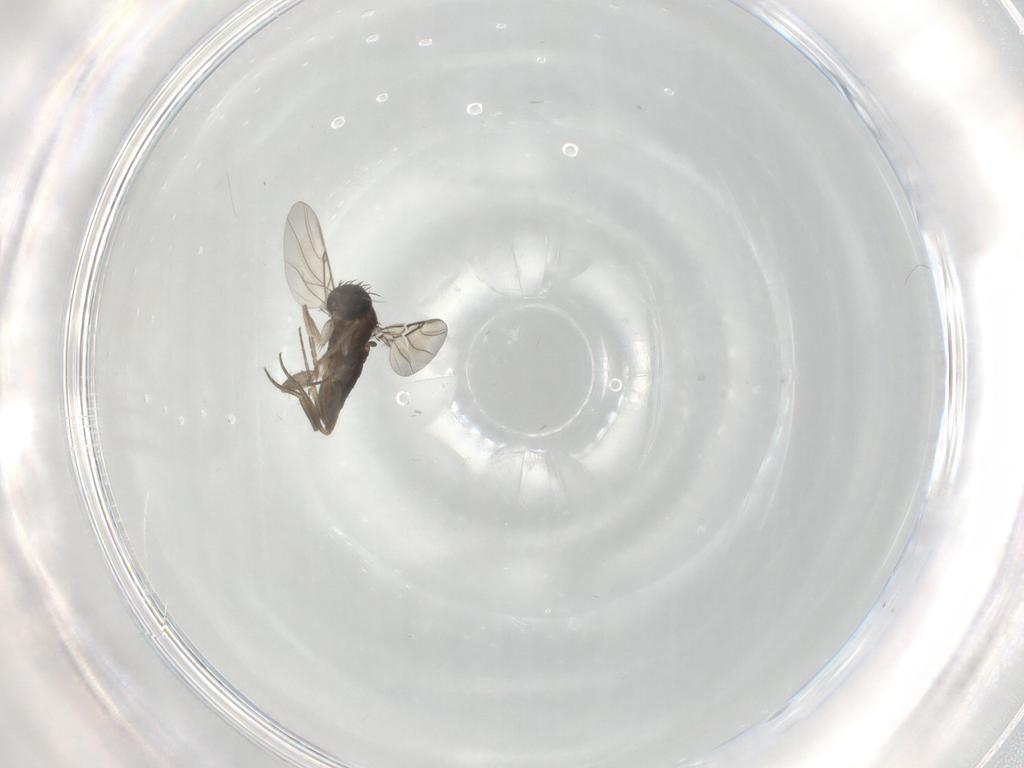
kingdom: Animalia
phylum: Arthropoda
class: Insecta
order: Diptera
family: Phoridae
